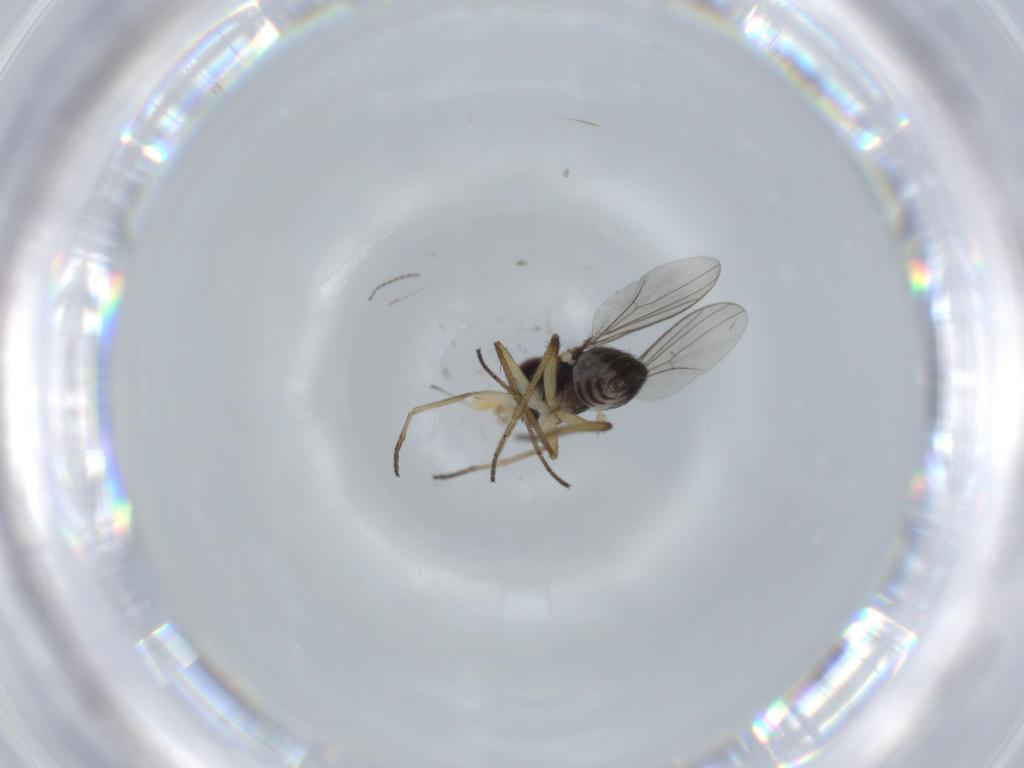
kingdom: Animalia
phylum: Arthropoda
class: Insecta
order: Diptera
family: Dolichopodidae
